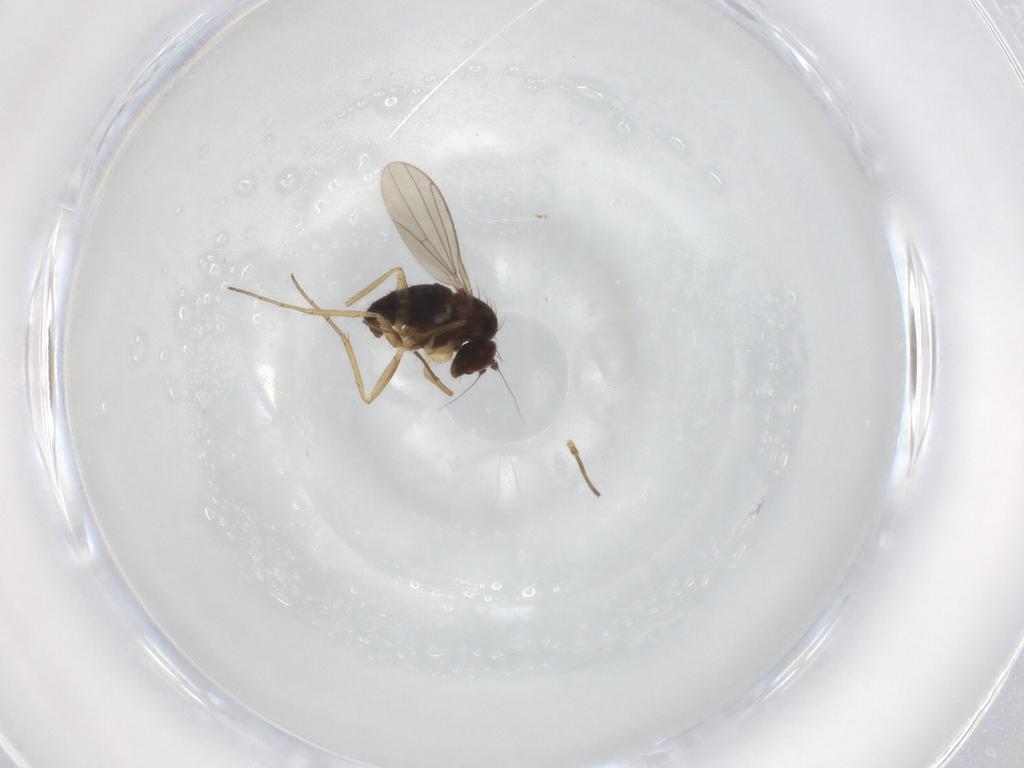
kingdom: Animalia
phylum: Arthropoda
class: Insecta
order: Diptera
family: Dolichopodidae
